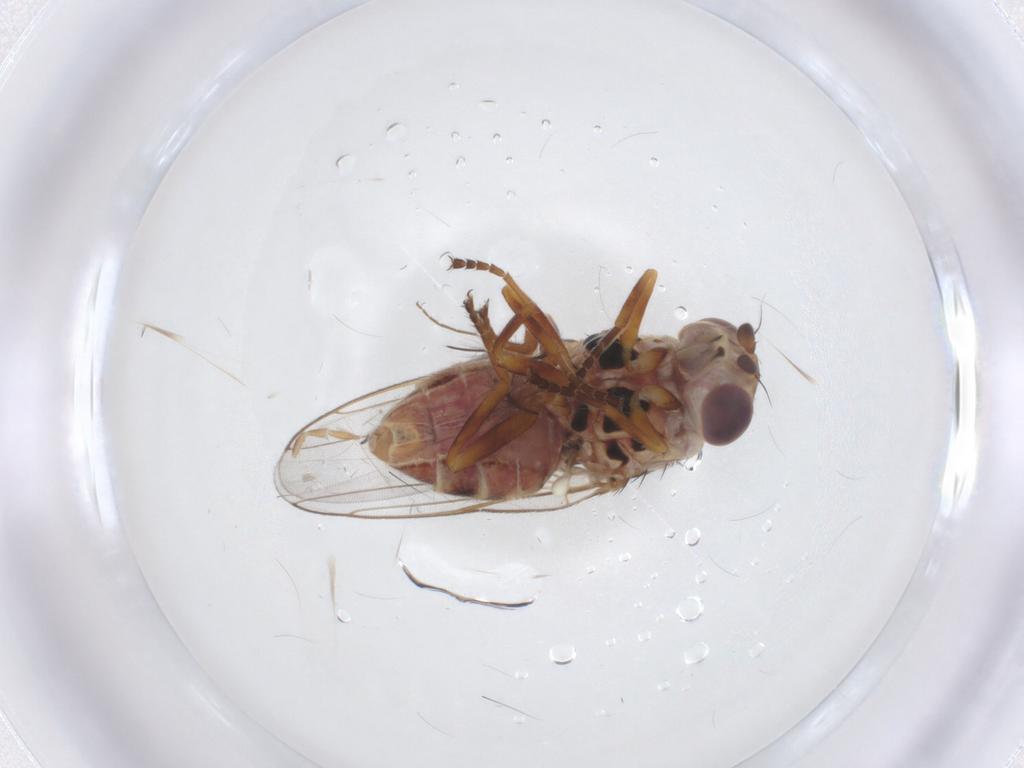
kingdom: Animalia
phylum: Arthropoda
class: Insecta
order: Diptera
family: Chloropidae
